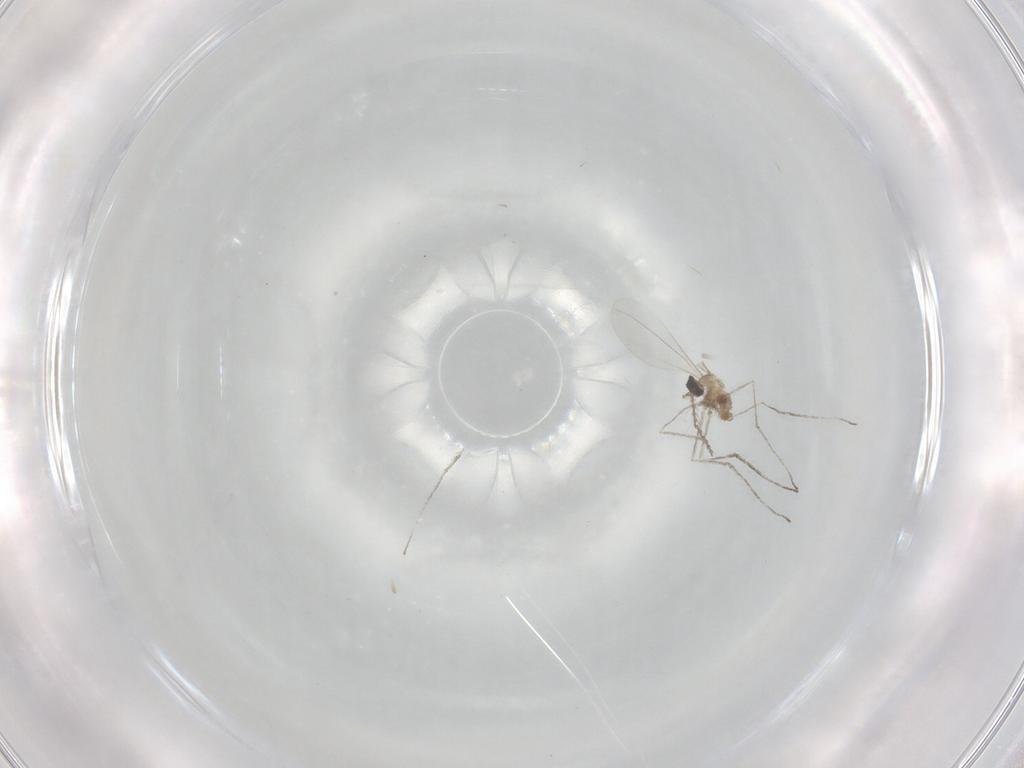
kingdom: Animalia
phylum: Arthropoda
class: Insecta
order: Diptera
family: Cecidomyiidae
